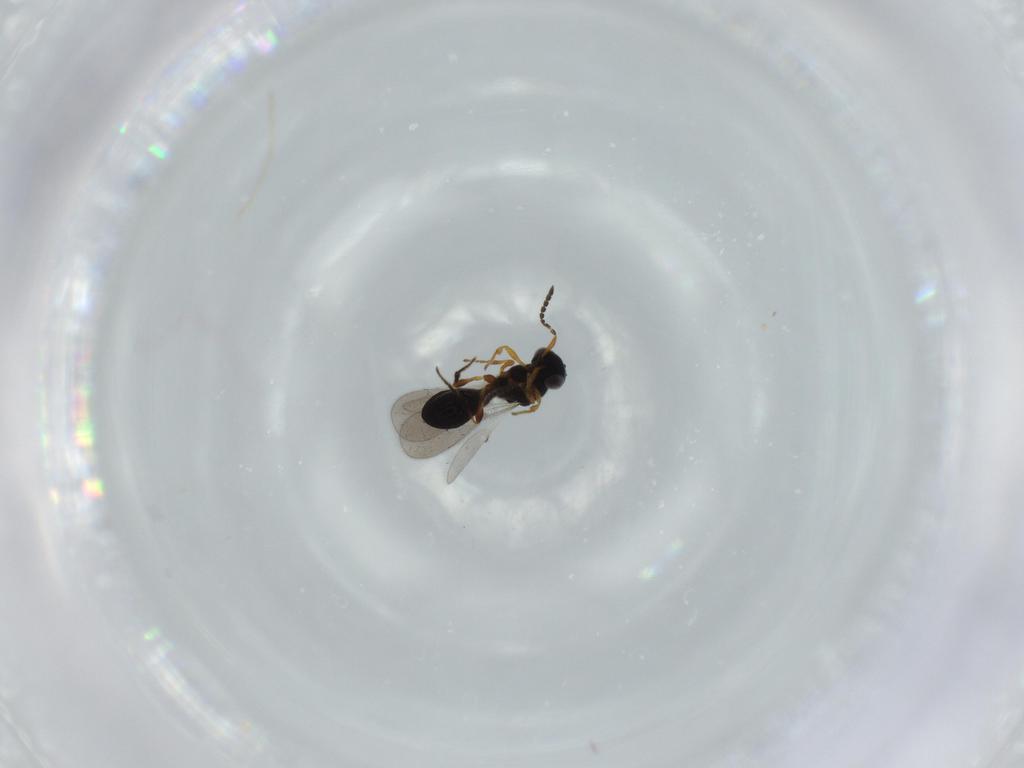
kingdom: Animalia
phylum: Arthropoda
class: Insecta
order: Hymenoptera
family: Platygastridae
